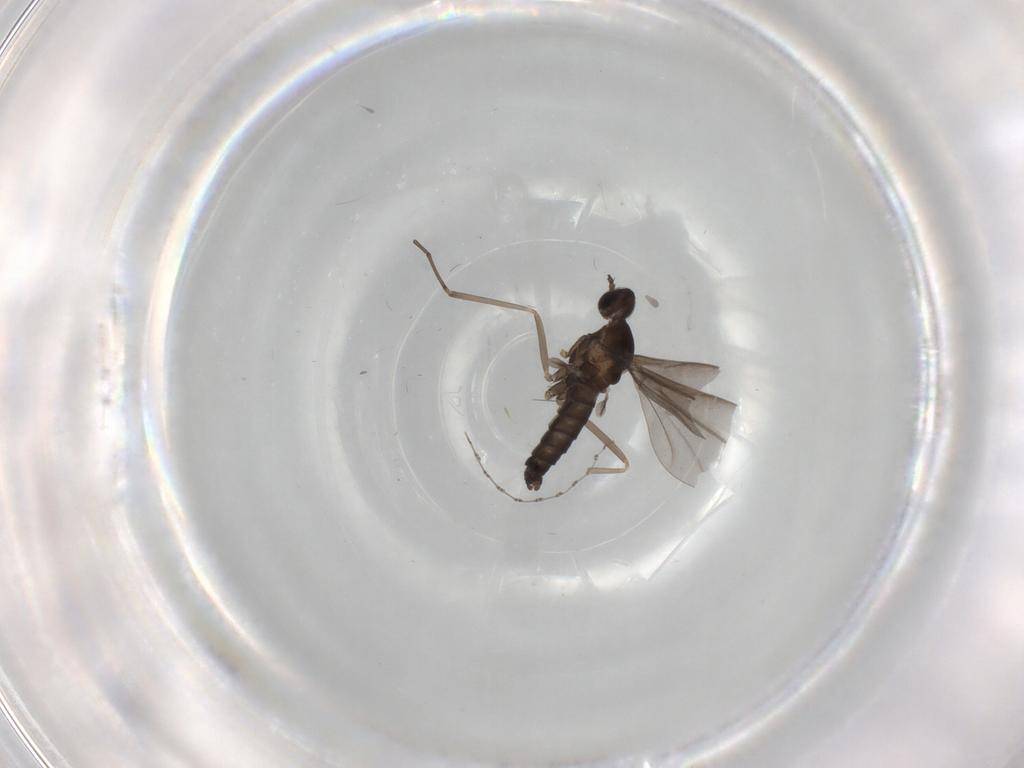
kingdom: Animalia
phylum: Arthropoda
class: Insecta
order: Diptera
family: Cecidomyiidae
